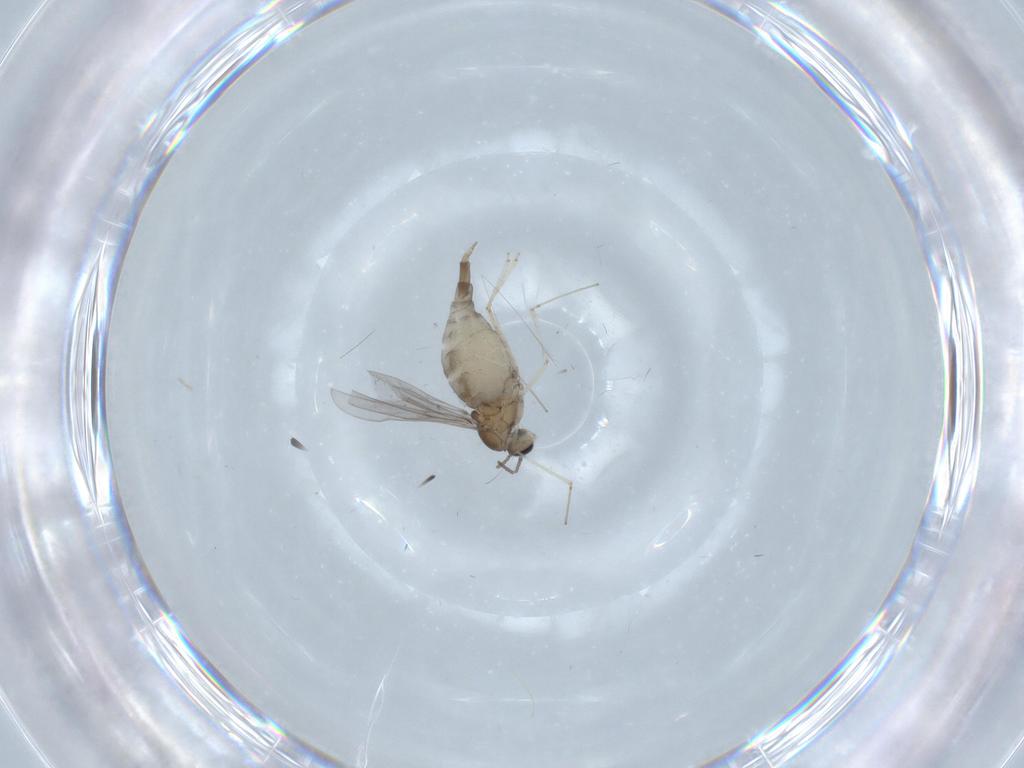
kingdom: Animalia
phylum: Arthropoda
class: Insecta
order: Diptera
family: Cecidomyiidae
